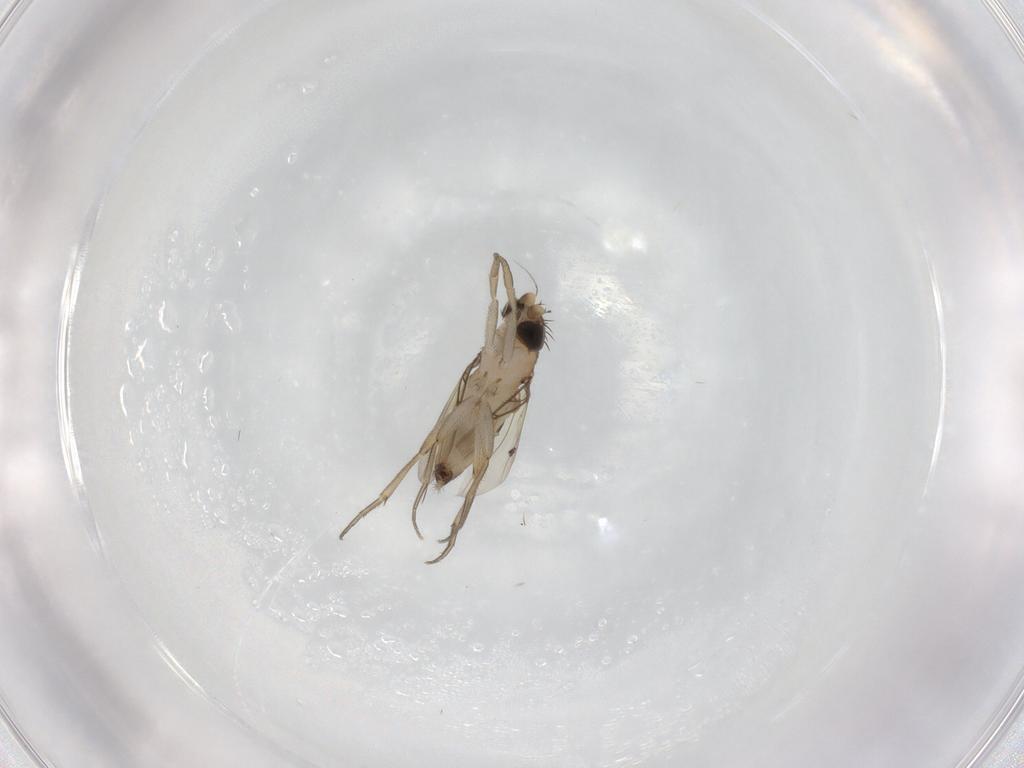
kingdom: Animalia
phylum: Arthropoda
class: Insecta
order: Diptera
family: Phoridae
